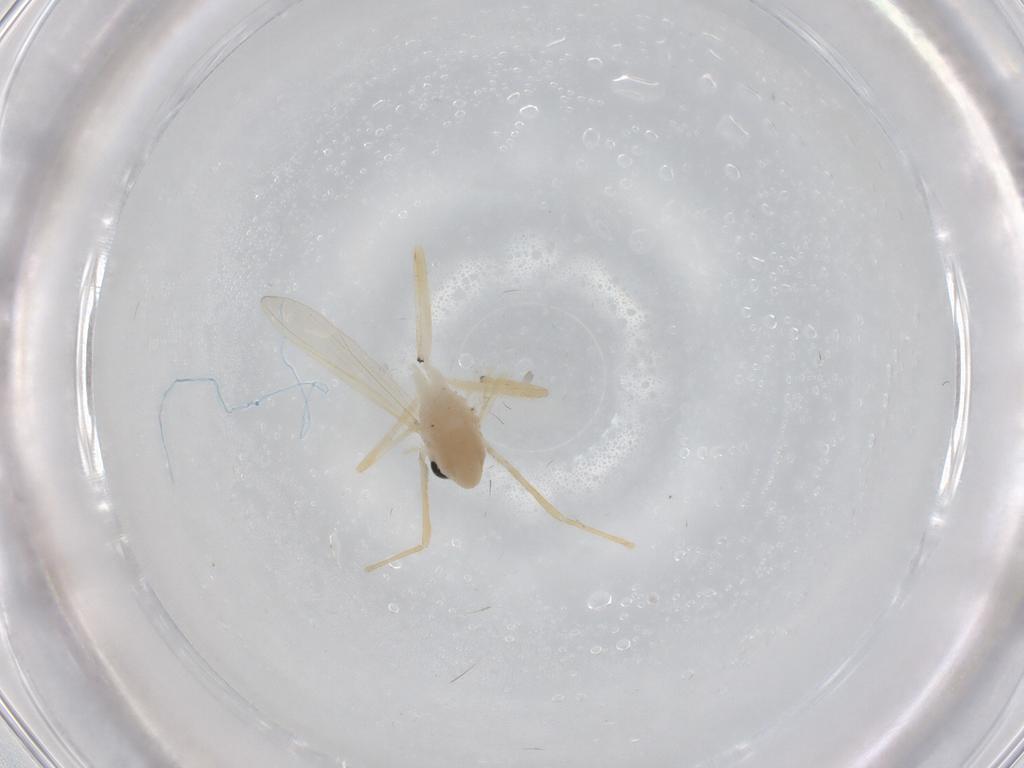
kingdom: Animalia
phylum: Arthropoda
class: Insecta
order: Diptera
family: Chironomidae
